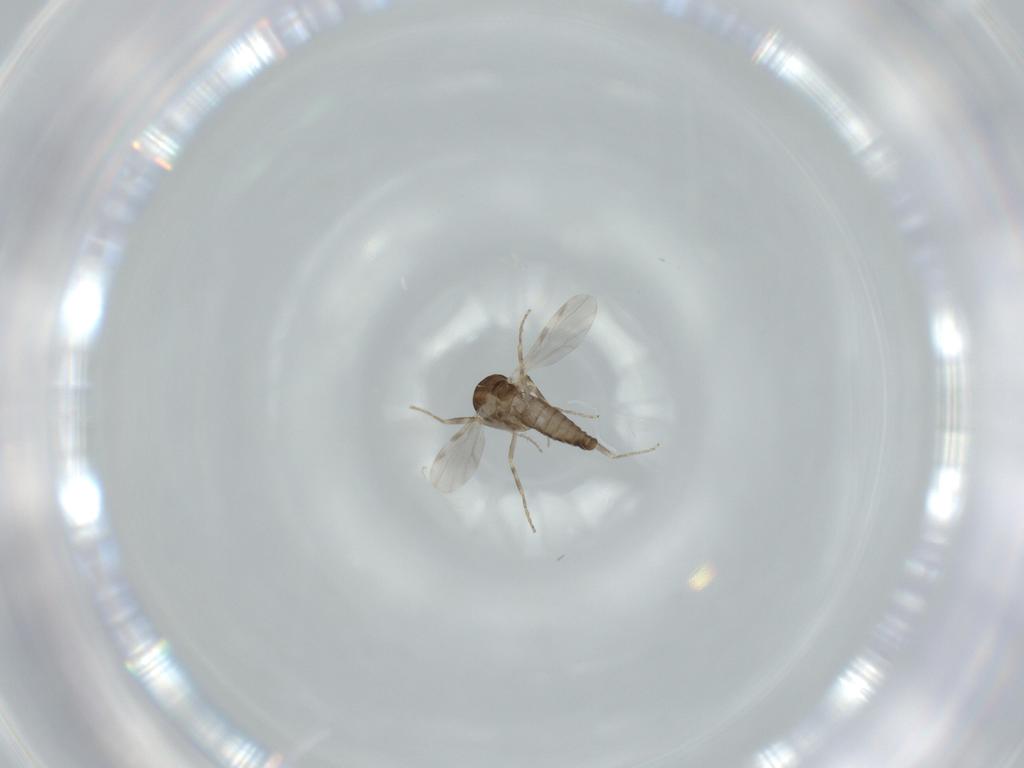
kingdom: Animalia
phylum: Arthropoda
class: Insecta
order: Diptera
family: Ceratopogonidae
